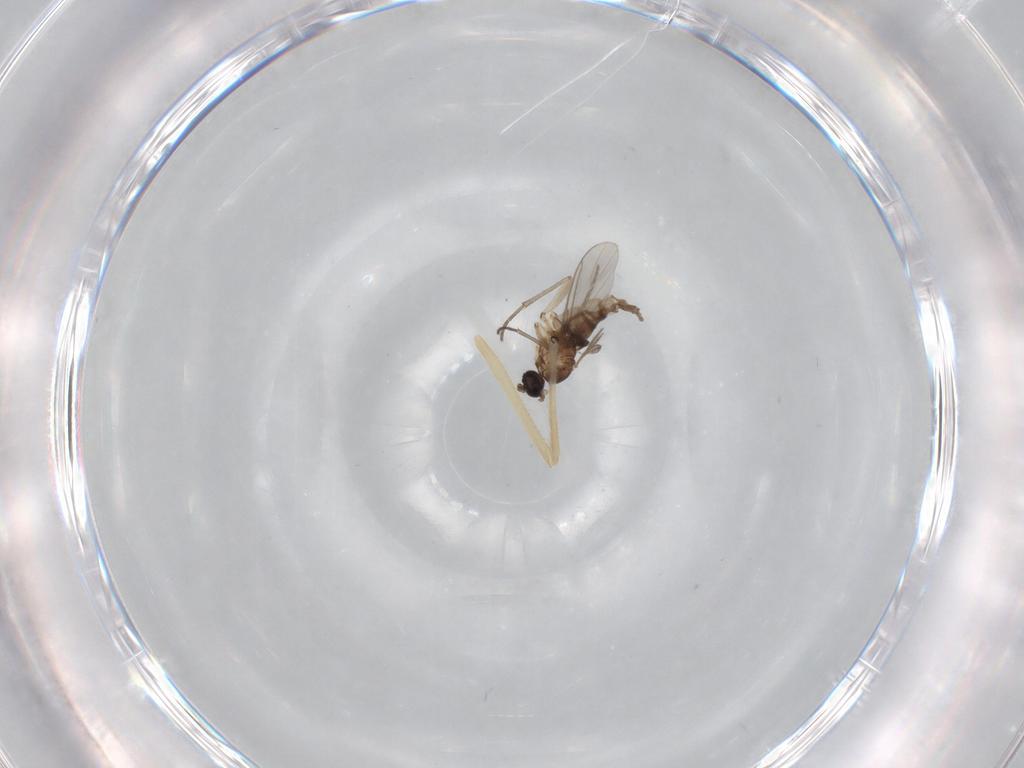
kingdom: Animalia
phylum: Arthropoda
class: Insecta
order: Diptera
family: Sciaridae
